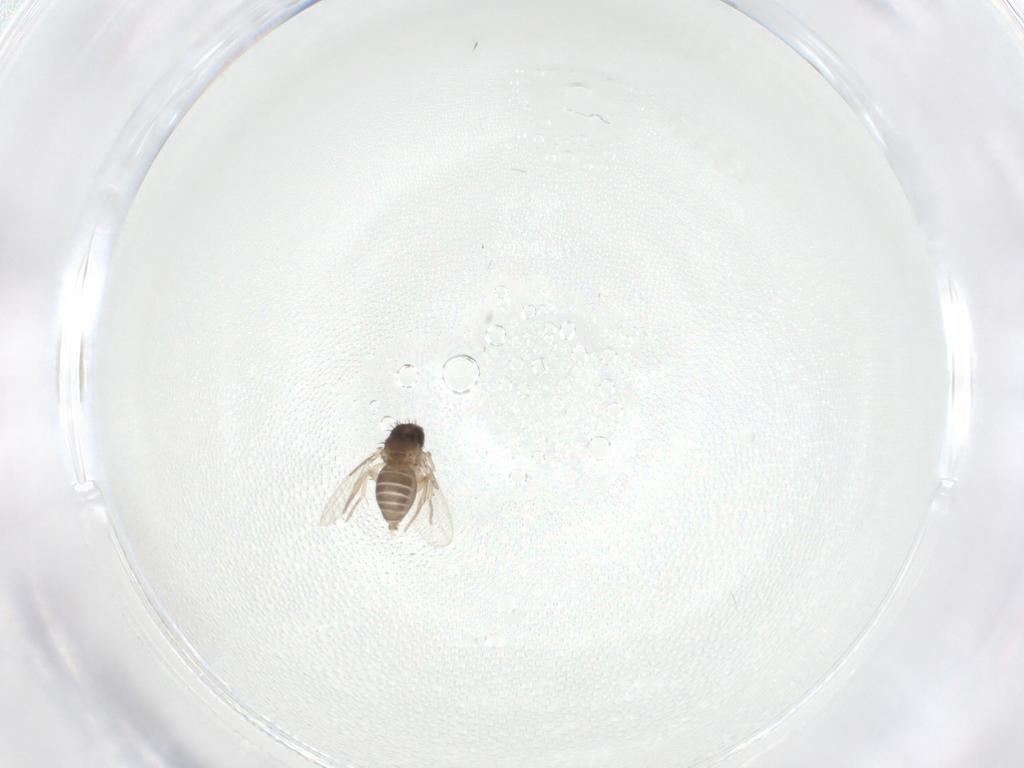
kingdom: Animalia
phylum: Arthropoda
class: Insecta
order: Diptera
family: Phoridae
